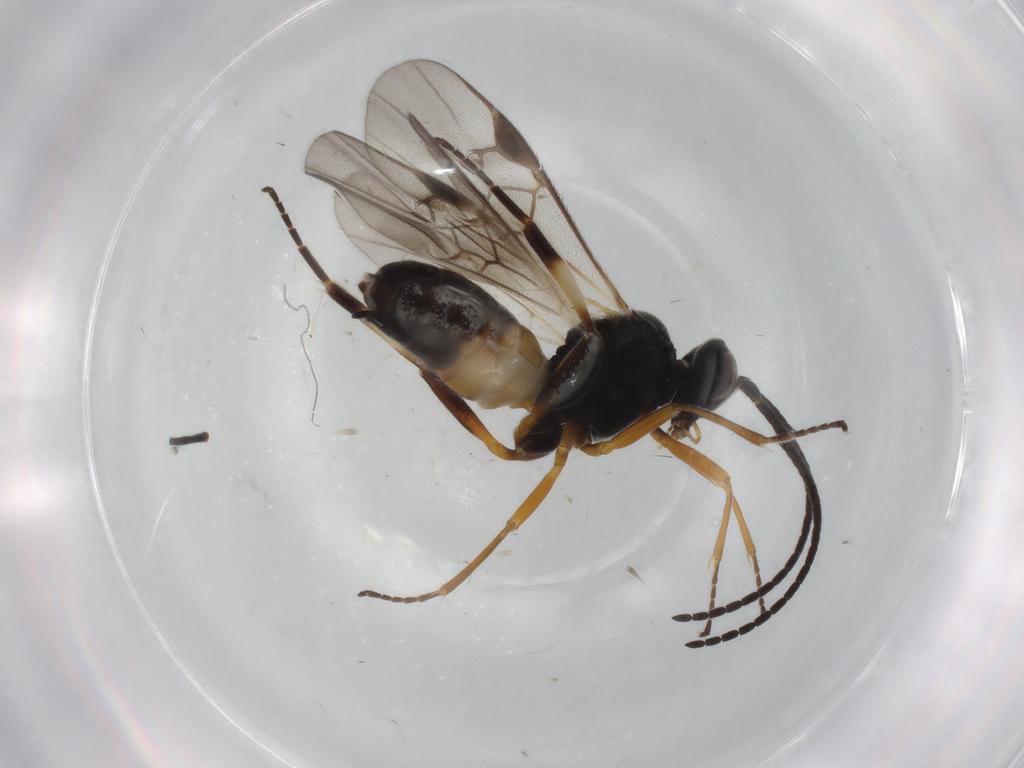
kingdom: Animalia
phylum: Arthropoda
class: Insecta
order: Hymenoptera
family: Braconidae
